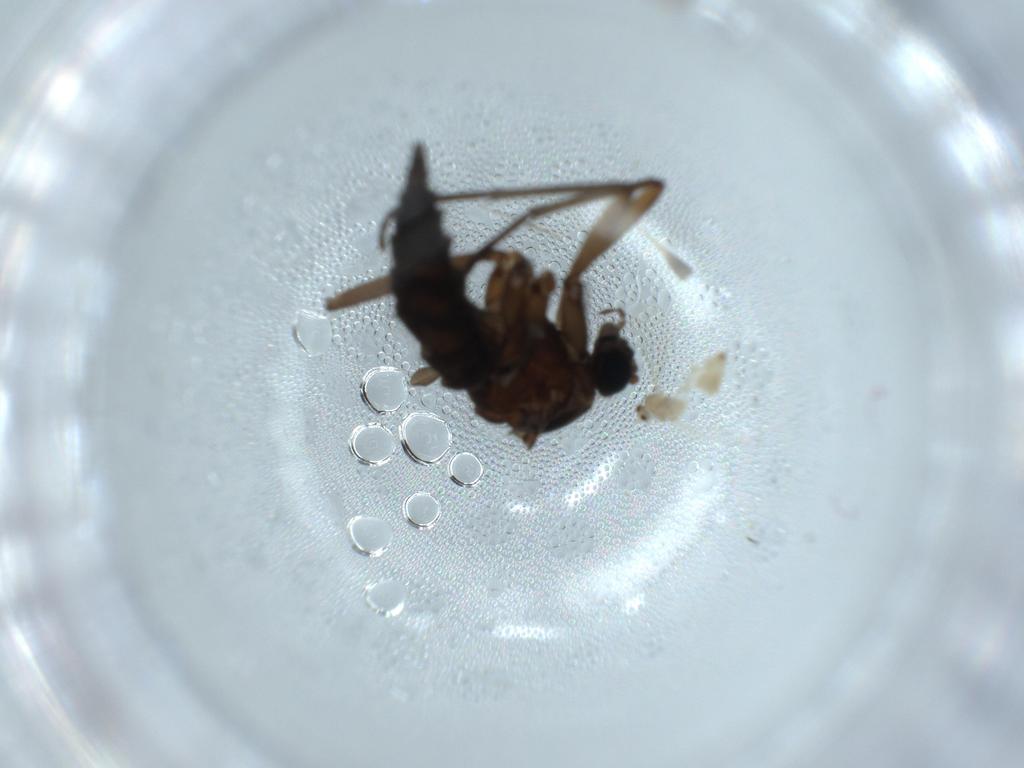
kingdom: Animalia
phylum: Arthropoda
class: Insecta
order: Diptera
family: Sciaridae
